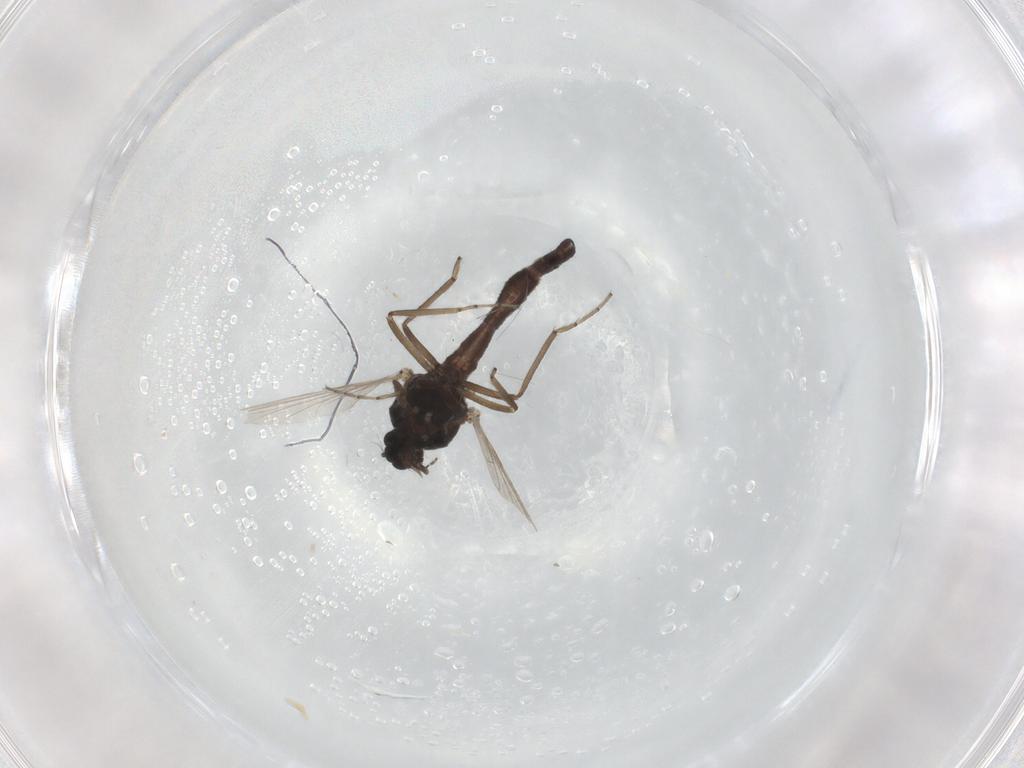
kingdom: Animalia
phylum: Arthropoda
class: Insecta
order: Diptera
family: Ceratopogonidae
